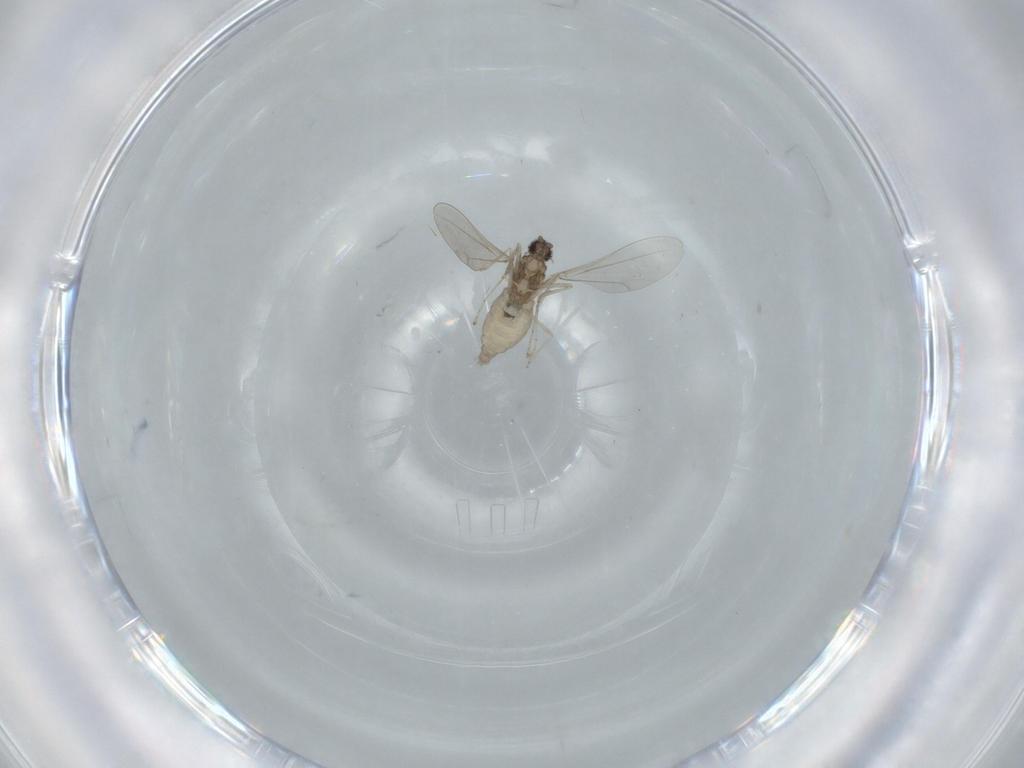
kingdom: Animalia
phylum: Arthropoda
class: Insecta
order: Diptera
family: Cecidomyiidae
